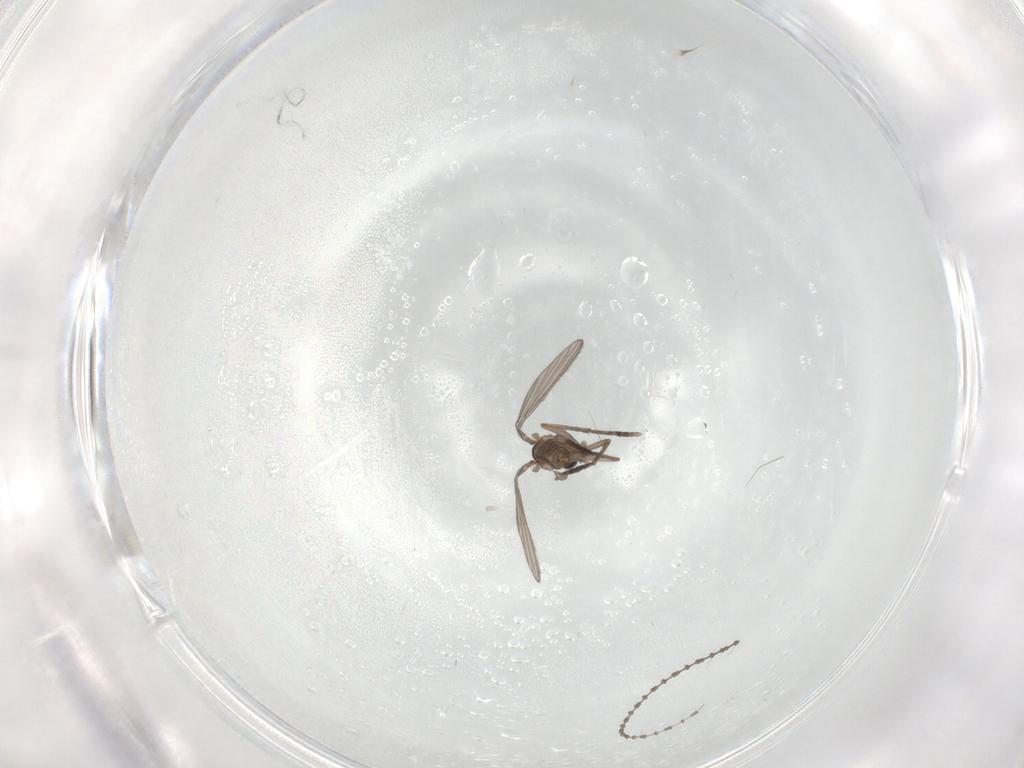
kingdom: Animalia
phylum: Arthropoda
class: Insecta
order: Diptera
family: Cecidomyiidae
